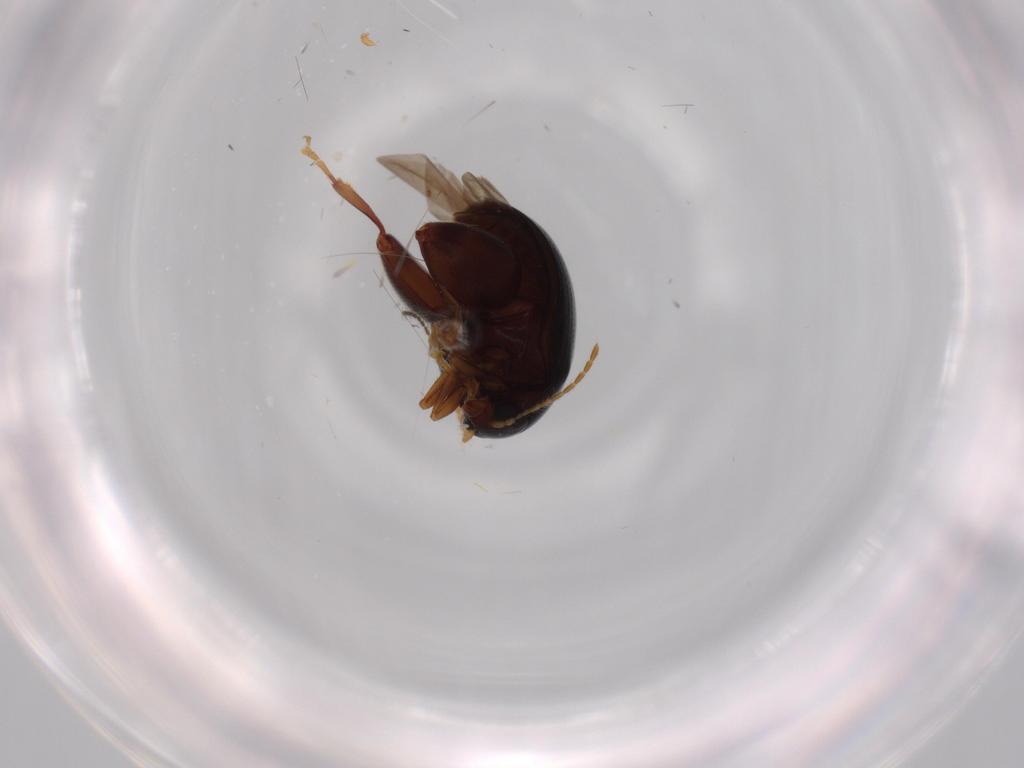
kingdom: Animalia
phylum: Arthropoda
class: Insecta
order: Coleoptera
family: Chrysomelidae
